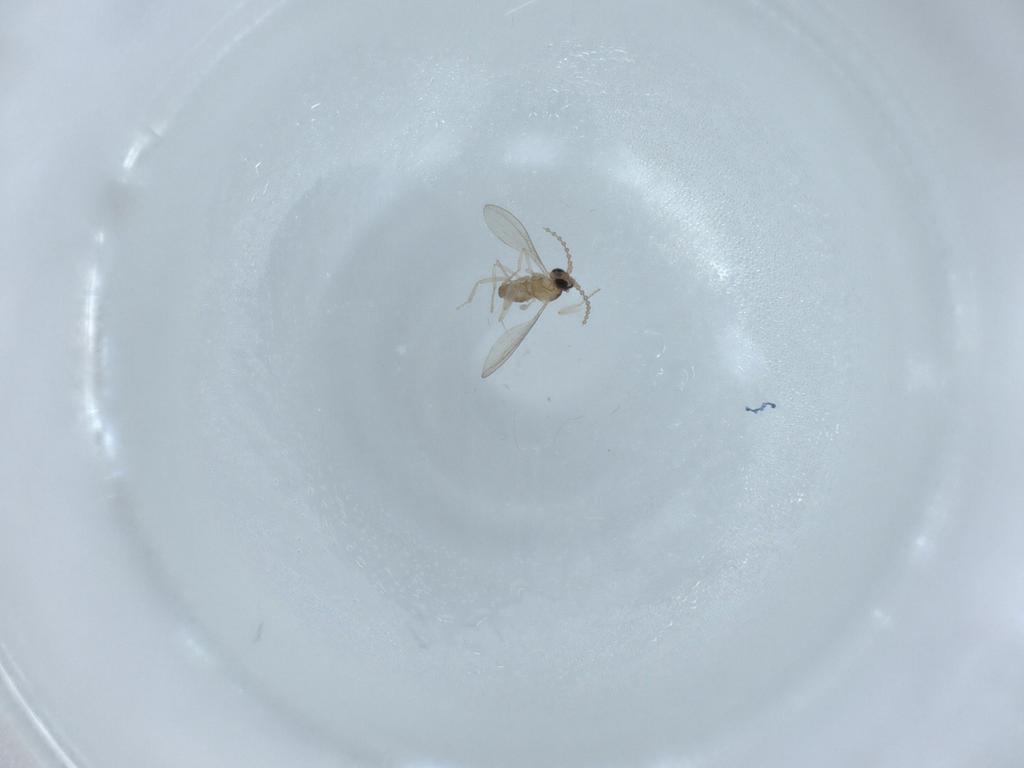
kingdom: Animalia
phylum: Arthropoda
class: Insecta
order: Diptera
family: Cecidomyiidae
